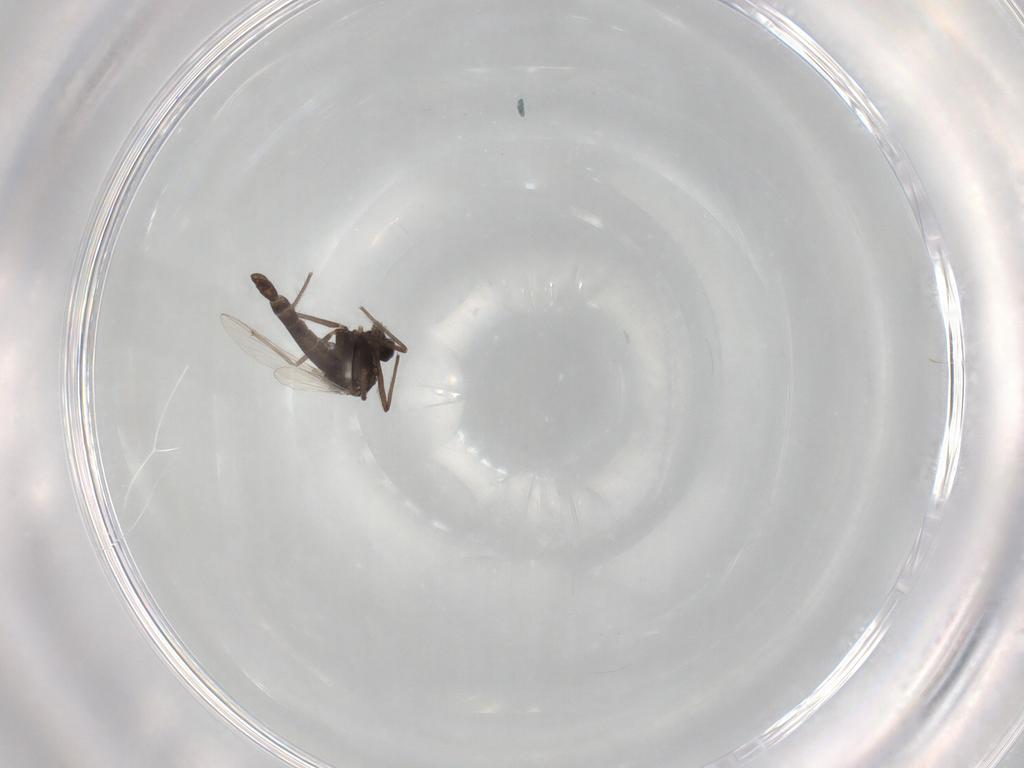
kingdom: Animalia
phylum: Arthropoda
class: Insecta
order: Diptera
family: Chironomidae
